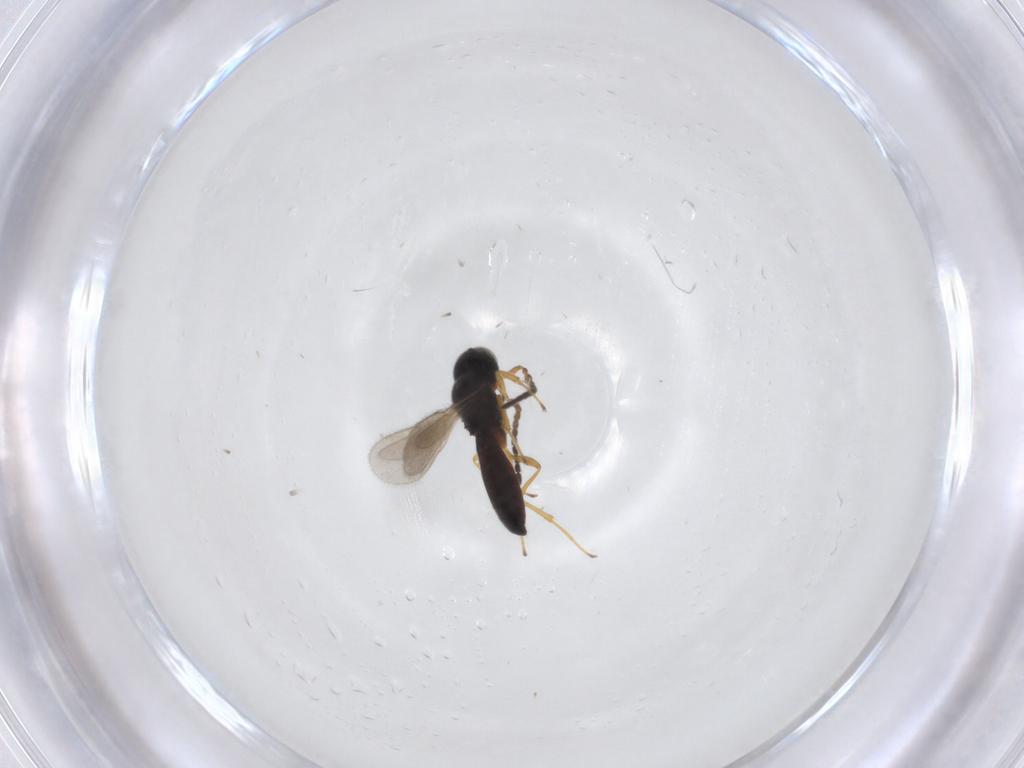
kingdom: Animalia
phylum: Arthropoda
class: Insecta
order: Hymenoptera
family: Scelionidae
